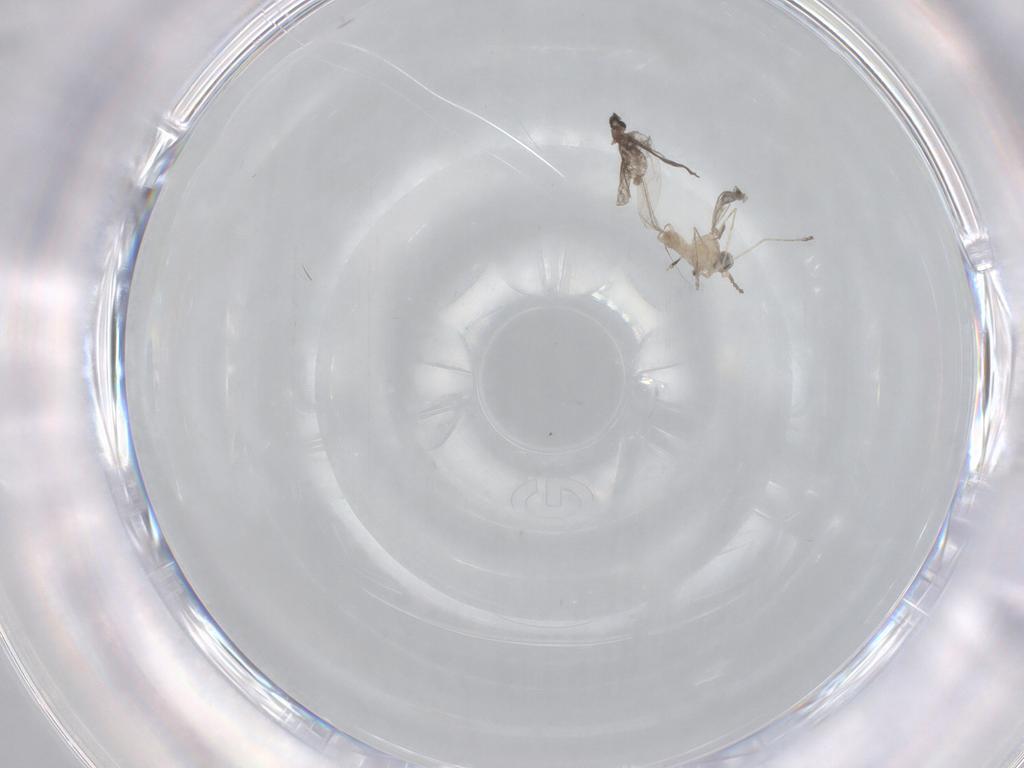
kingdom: Animalia
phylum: Arthropoda
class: Insecta
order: Diptera
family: Cecidomyiidae
